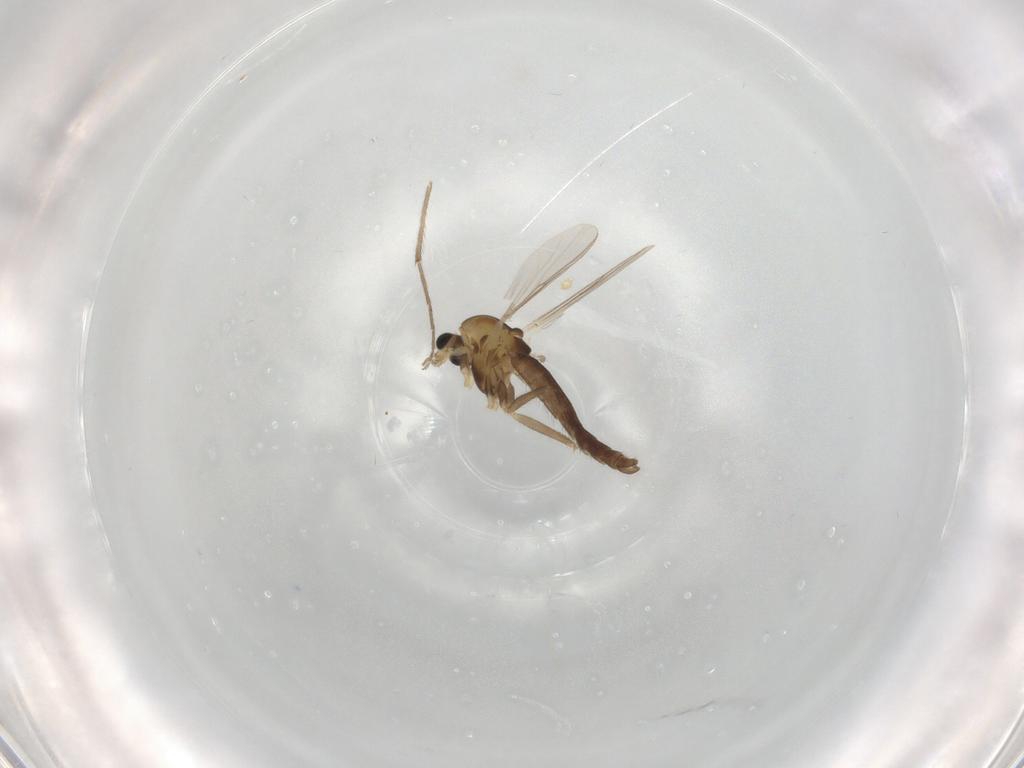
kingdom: Animalia
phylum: Arthropoda
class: Insecta
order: Diptera
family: Chironomidae
